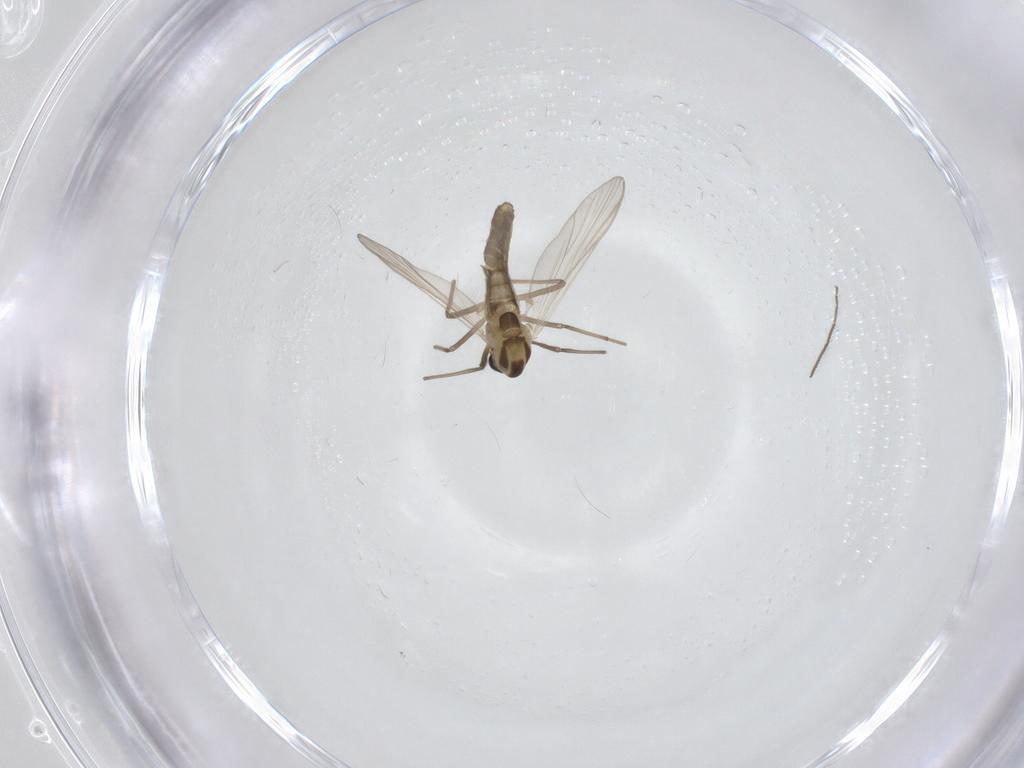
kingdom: Animalia
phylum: Arthropoda
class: Insecta
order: Diptera
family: Chironomidae
